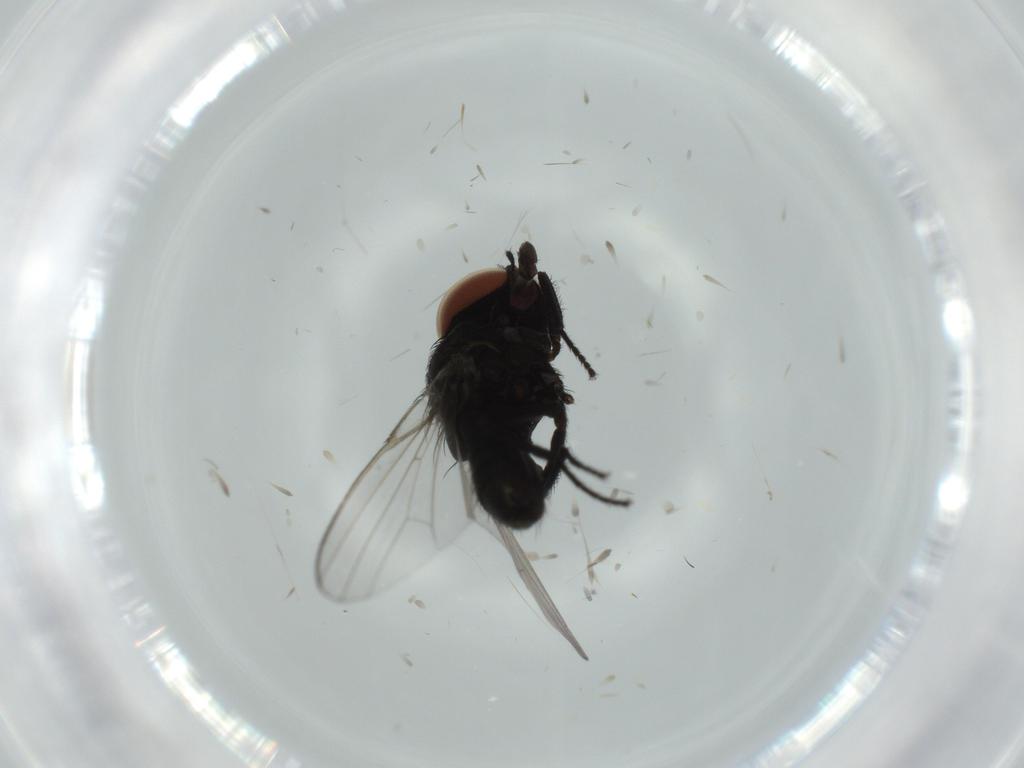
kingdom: Animalia
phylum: Arthropoda
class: Insecta
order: Diptera
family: Milichiidae
